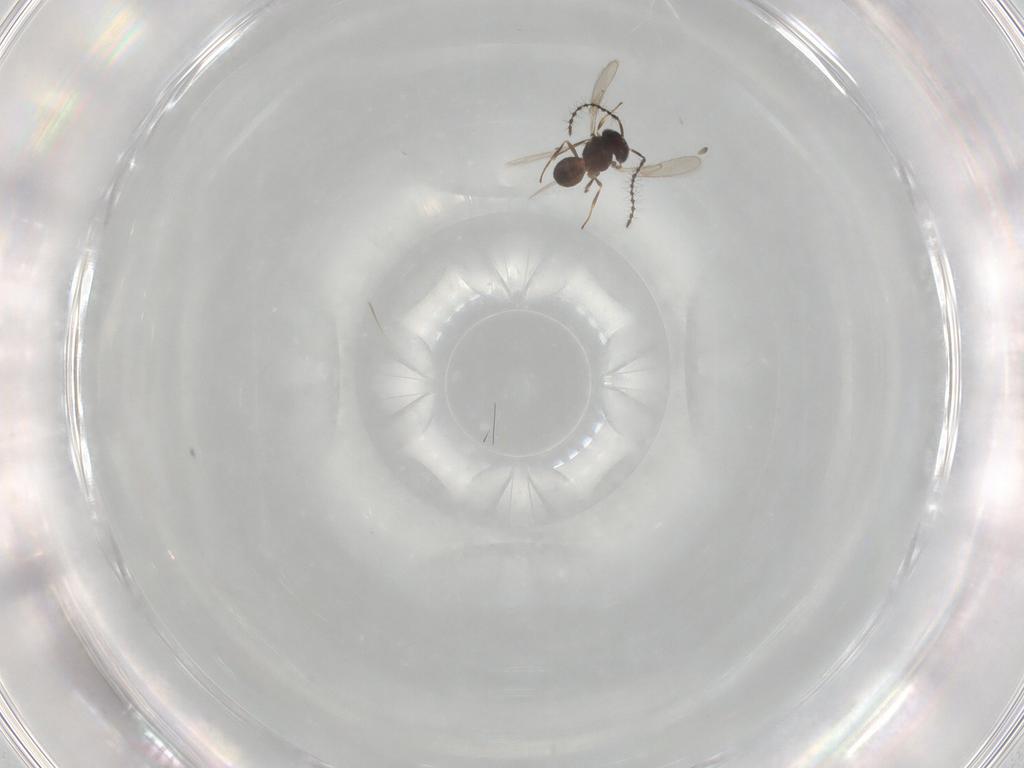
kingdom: Animalia
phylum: Arthropoda
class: Insecta
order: Hymenoptera
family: Scelionidae
